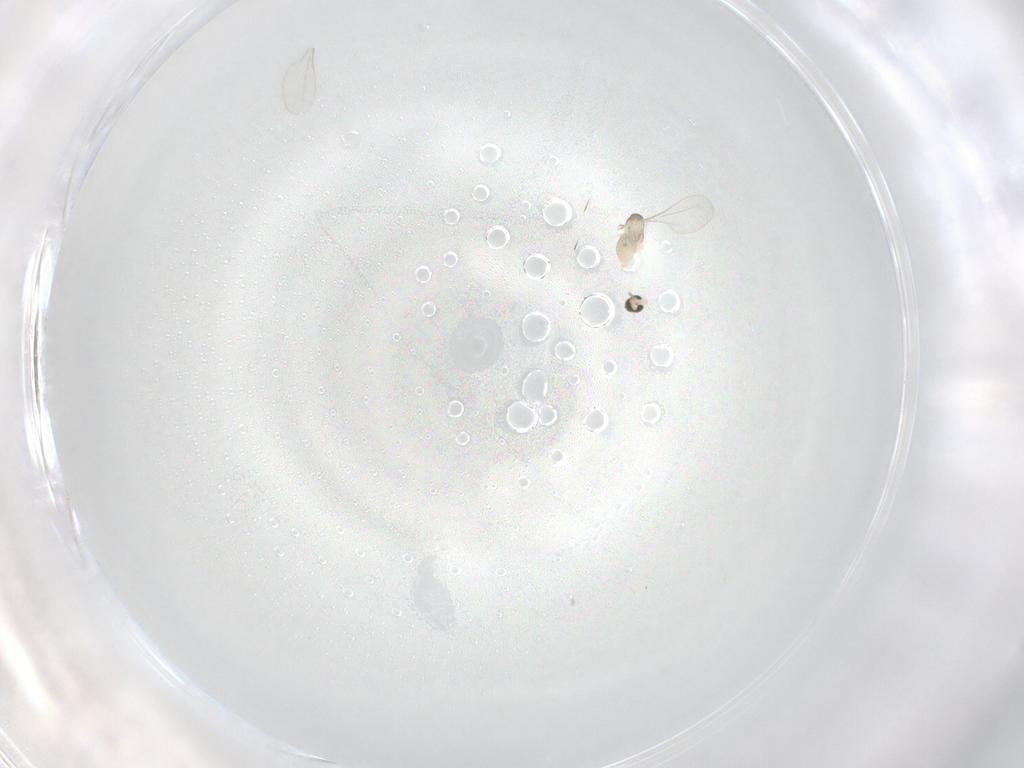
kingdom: Animalia
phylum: Arthropoda
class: Insecta
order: Diptera
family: Cecidomyiidae
